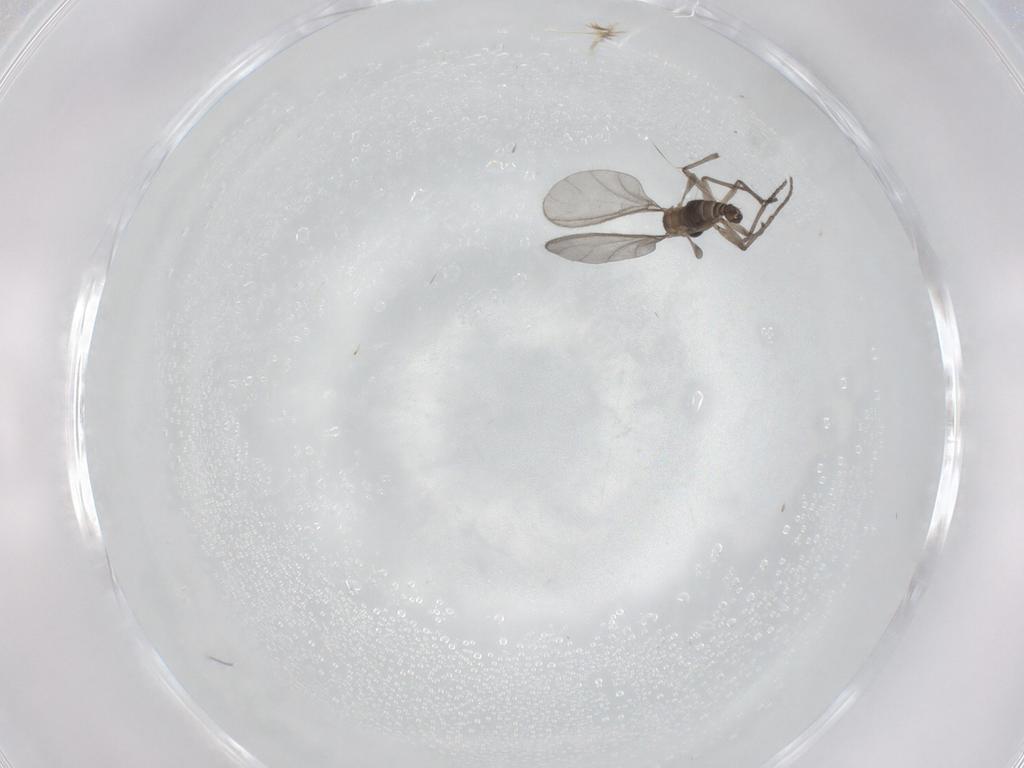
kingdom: Animalia
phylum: Arthropoda
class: Insecta
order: Diptera
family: Sciaridae
